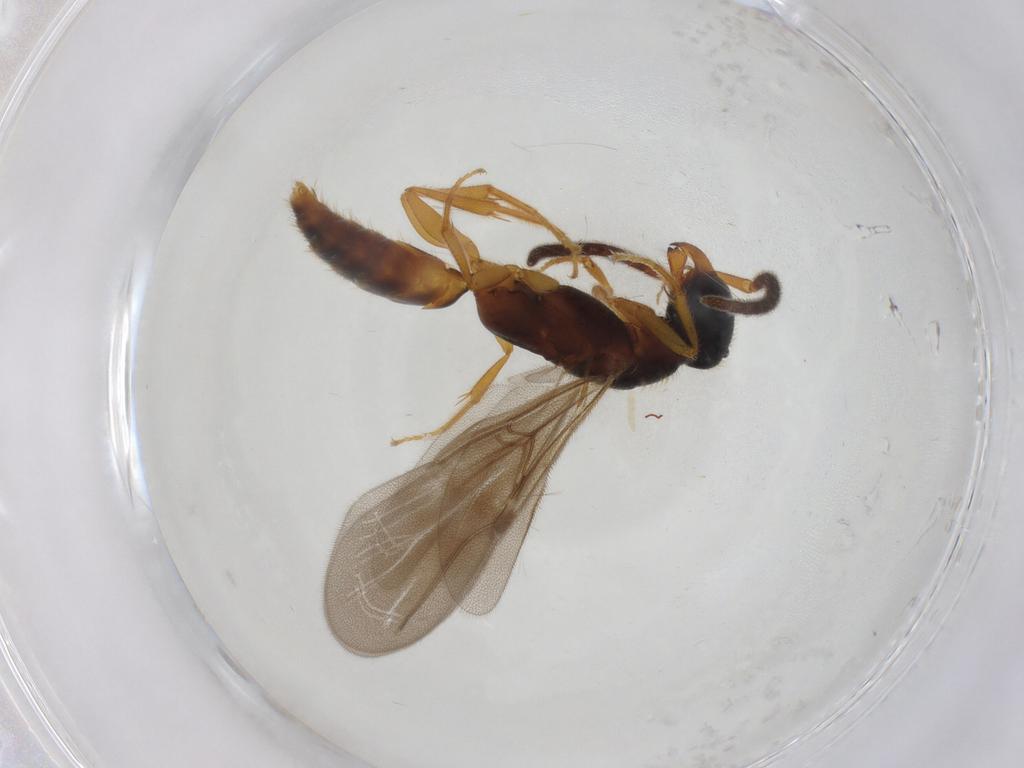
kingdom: Animalia
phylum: Arthropoda
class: Insecta
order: Hymenoptera
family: Bethylidae
